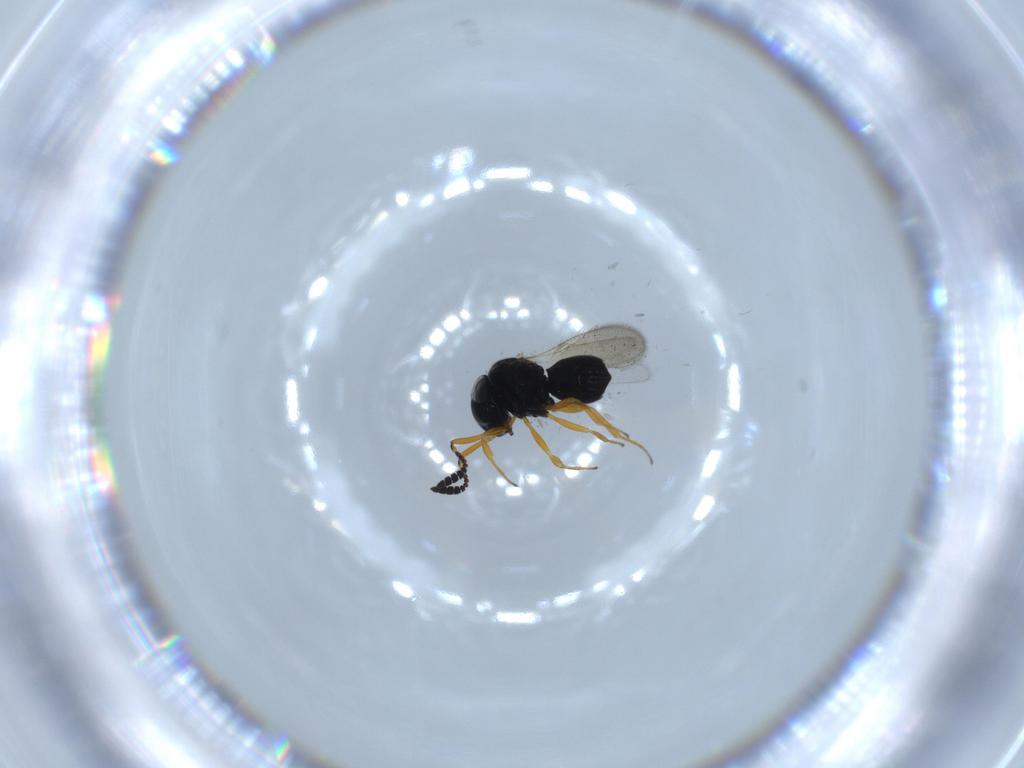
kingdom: Animalia
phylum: Arthropoda
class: Insecta
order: Hymenoptera
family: Scelionidae
